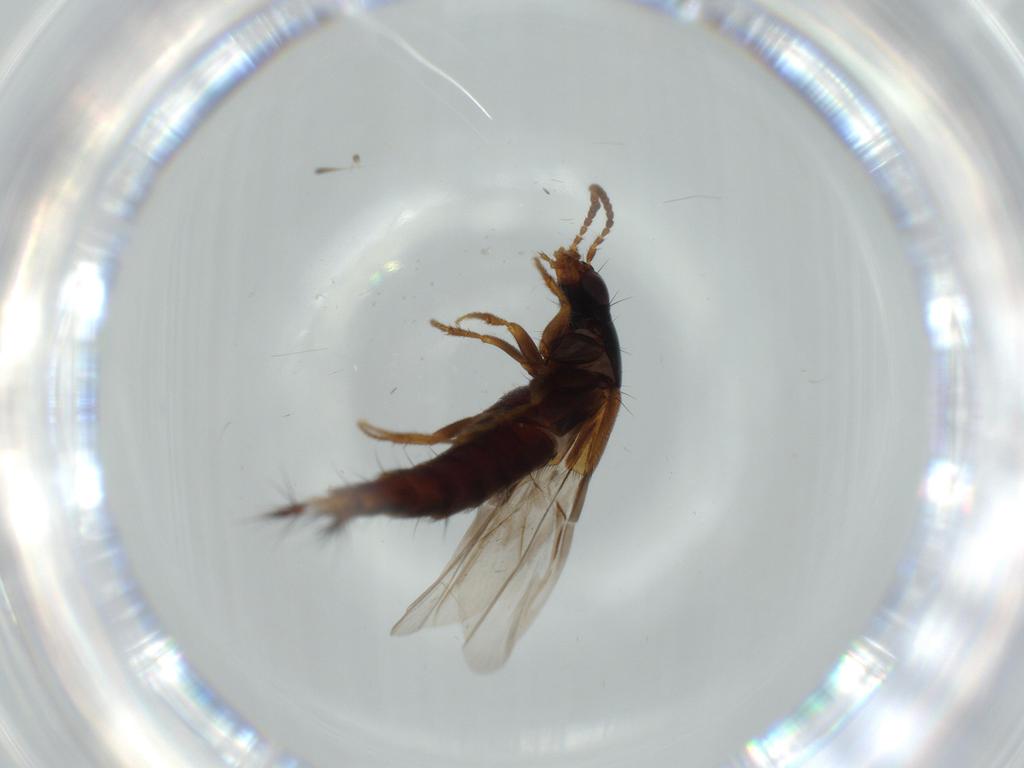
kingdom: Animalia
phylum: Arthropoda
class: Insecta
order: Coleoptera
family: Staphylinidae
